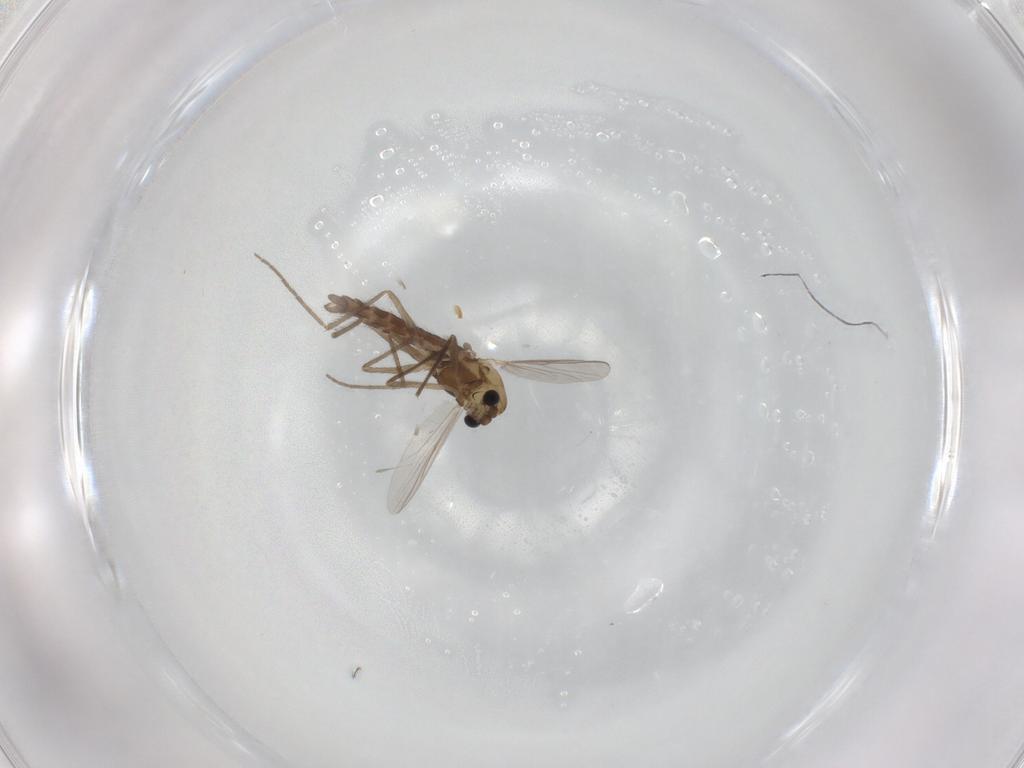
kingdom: Animalia
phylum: Arthropoda
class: Insecta
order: Diptera
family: Chironomidae
